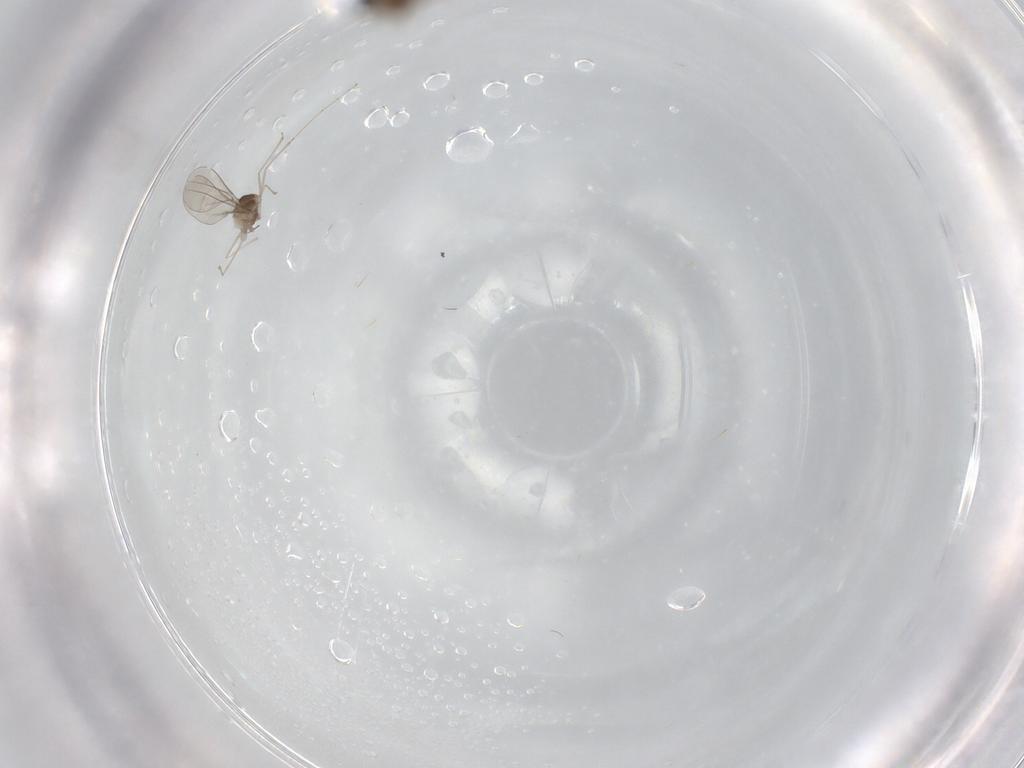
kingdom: Animalia
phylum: Arthropoda
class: Insecta
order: Diptera
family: Cecidomyiidae
